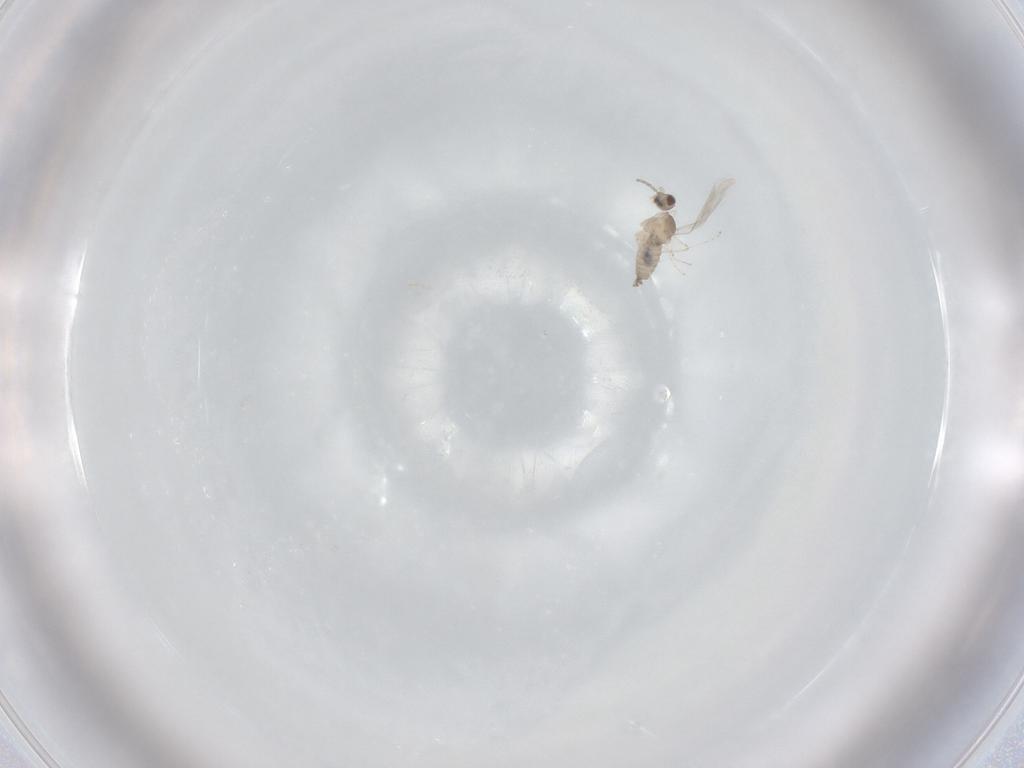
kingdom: Animalia
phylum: Arthropoda
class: Insecta
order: Diptera
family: Cecidomyiidae
